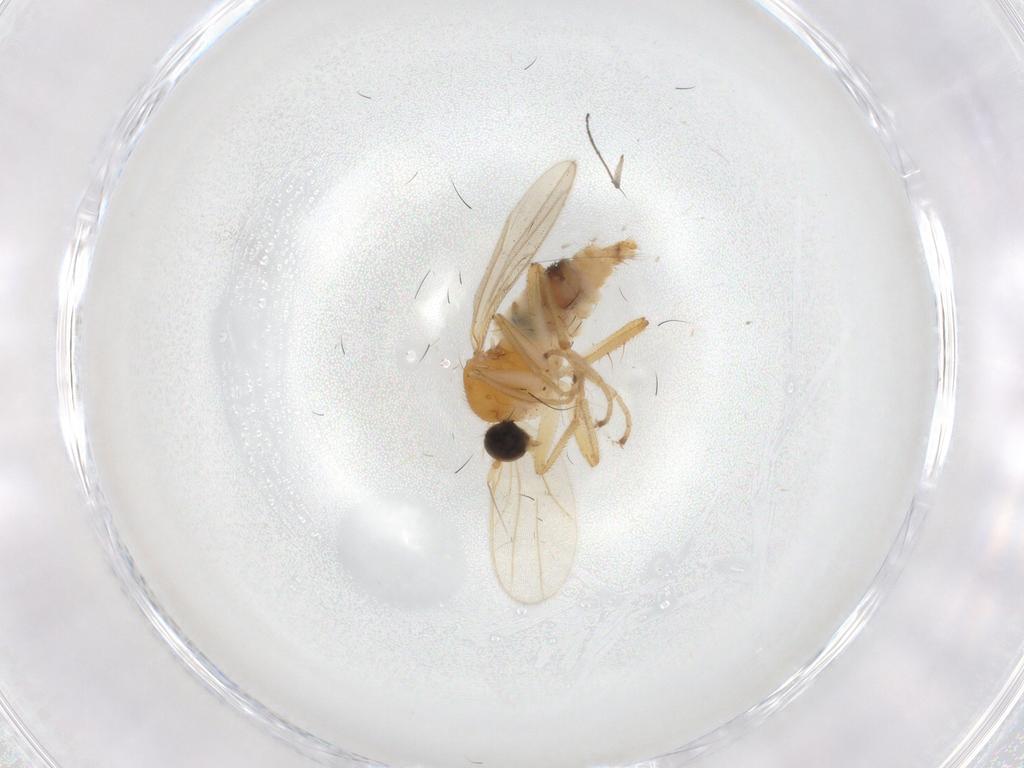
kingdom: Animalia
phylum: Arthropoda
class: Insecta
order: Diptera
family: Hybotidae
